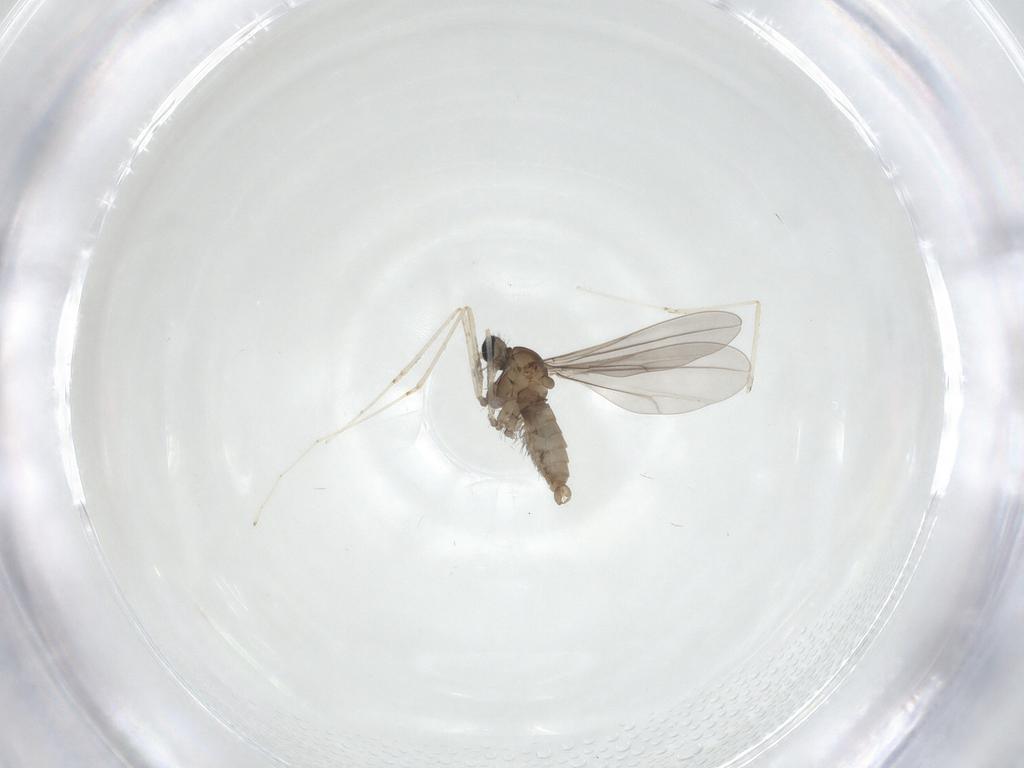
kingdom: Animalia
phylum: Arthropoda
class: Insecta
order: Diptera
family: Cecidomyiidae
